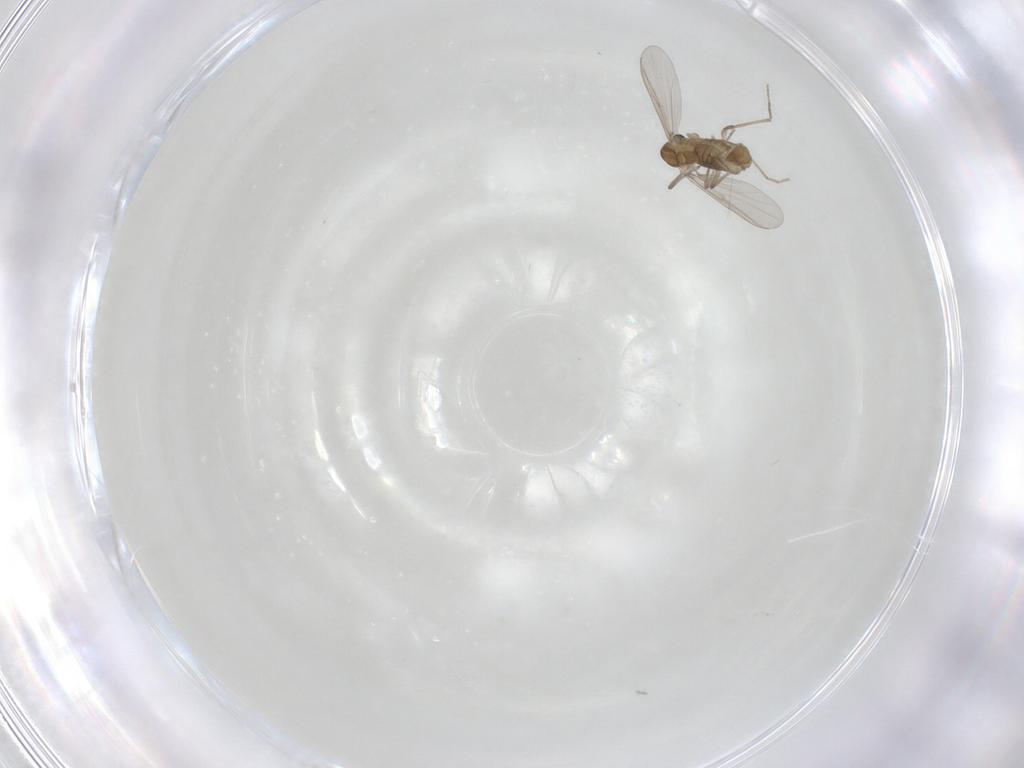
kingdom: Animalia
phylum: Arthropoda
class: Insecta
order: Diptera
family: Chironomidae
